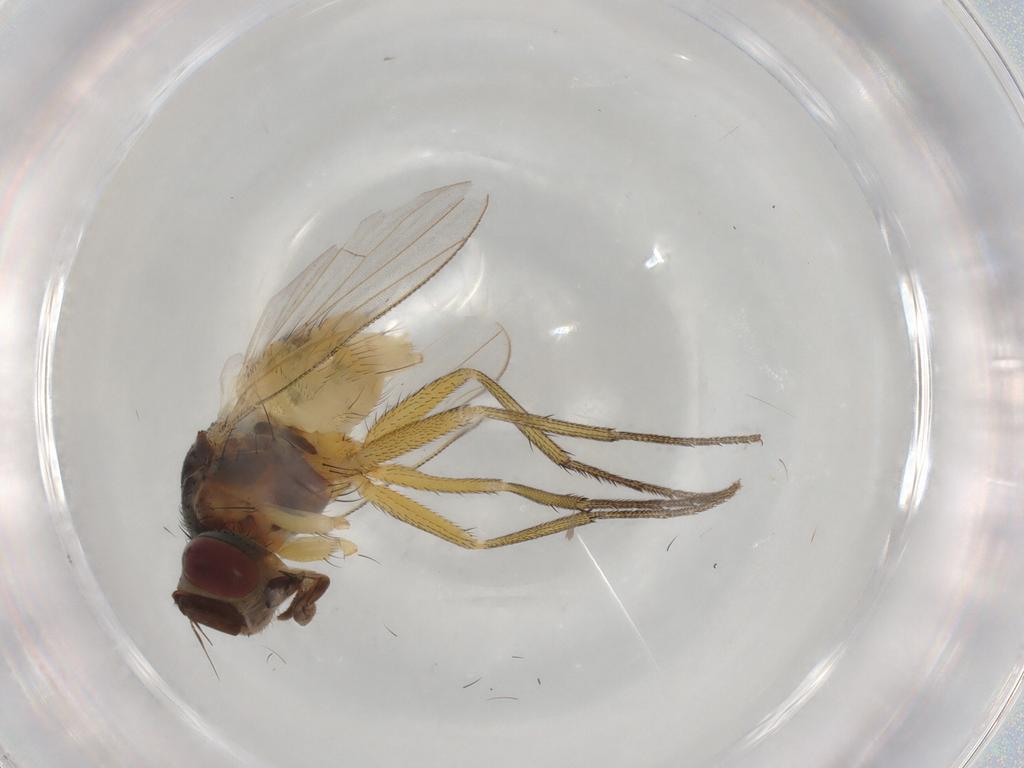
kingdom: Animalia
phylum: Arthropoda
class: Insecta
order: Diptera
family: Muscidae
